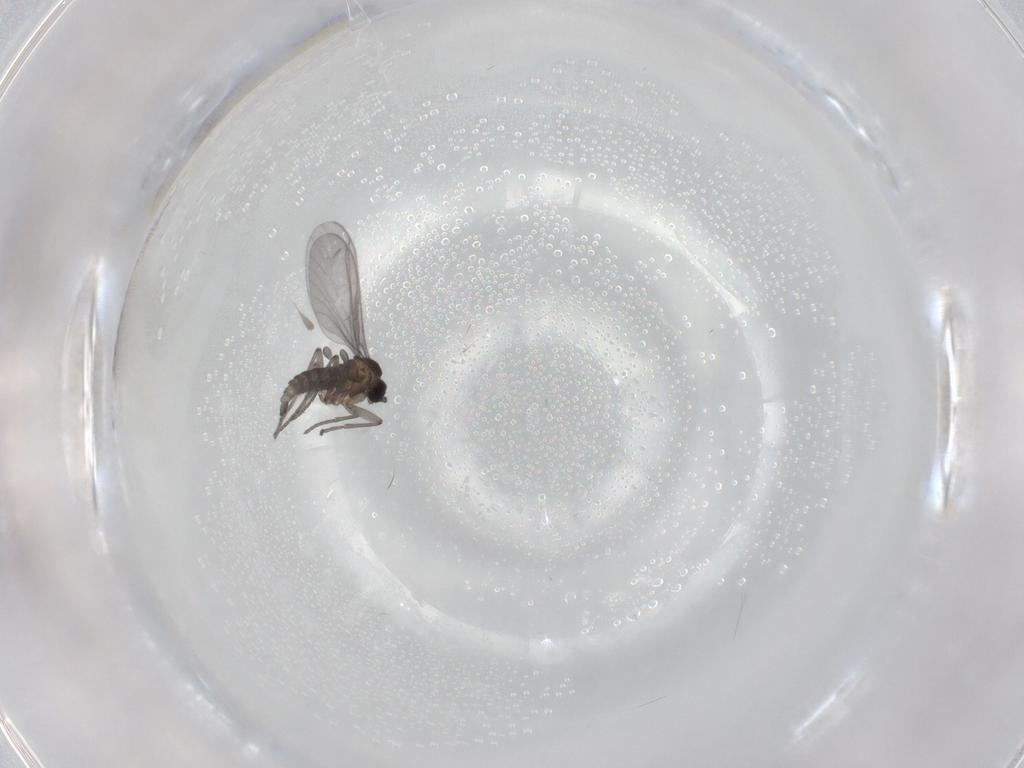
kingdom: Animalia
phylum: Arthropoda
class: Insecta
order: Diptera
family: Sciaridae
